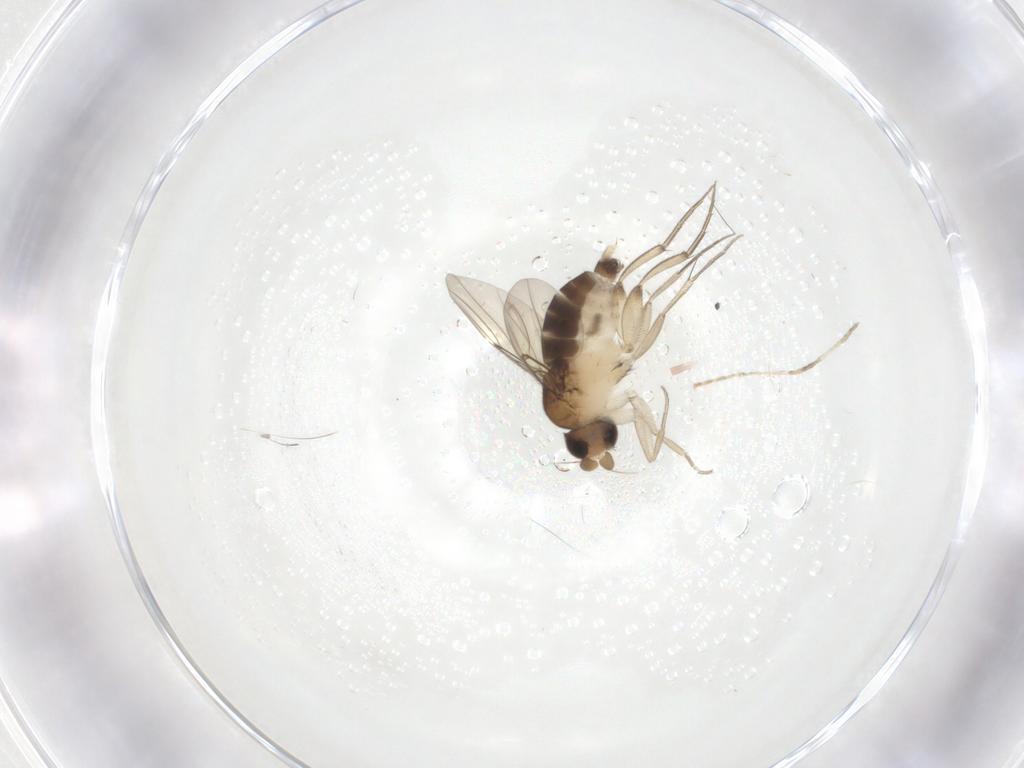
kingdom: Animalia
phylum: Arthropoda
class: Insecta
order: Diptera
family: Phoridae
